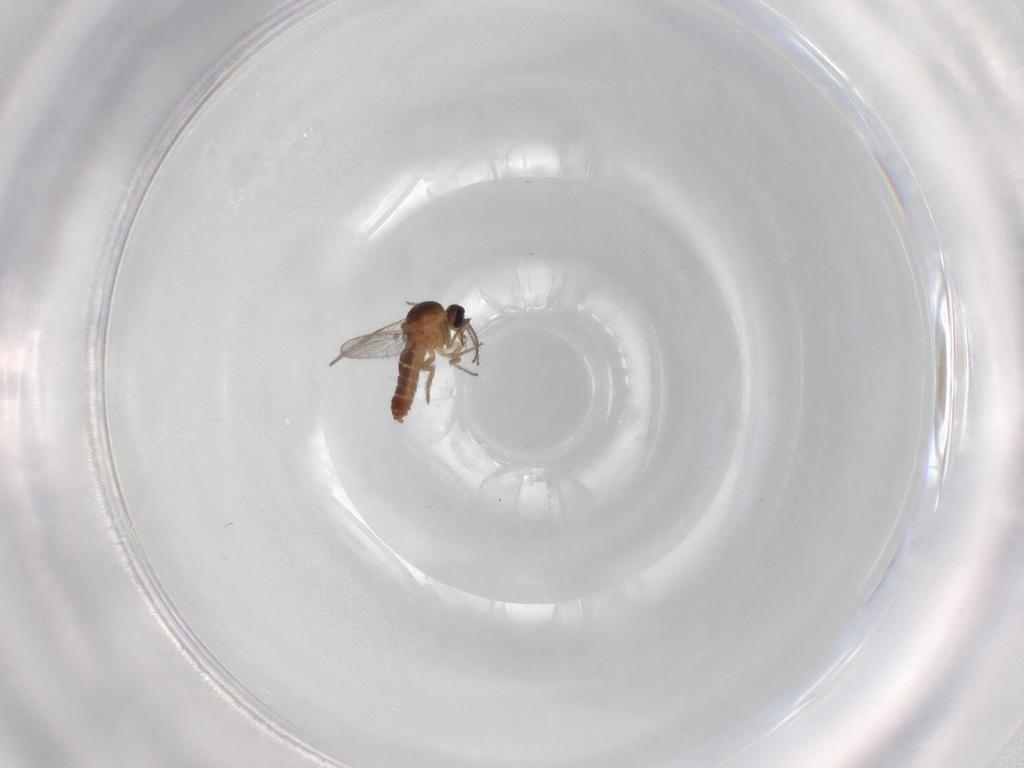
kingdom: Animalia
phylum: Arthropoda
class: Insecta
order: Diptera
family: Ceratopogonidae
